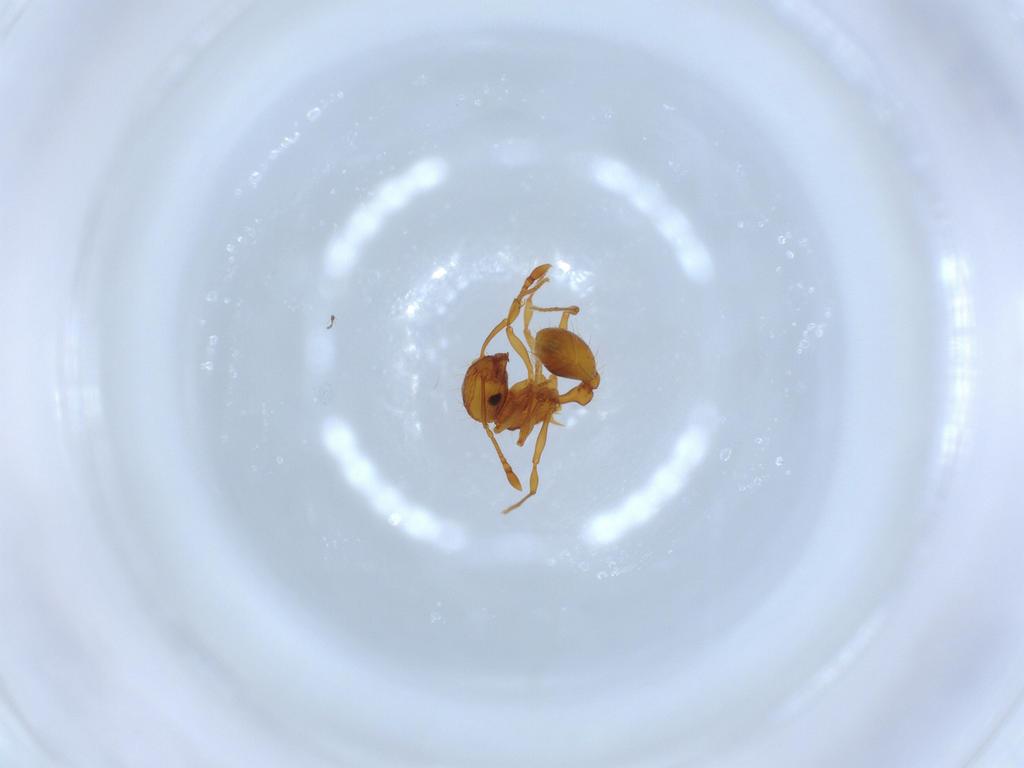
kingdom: Animalia
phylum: Arthropoda
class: Insecta
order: Hymenoptera
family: Formicidae
